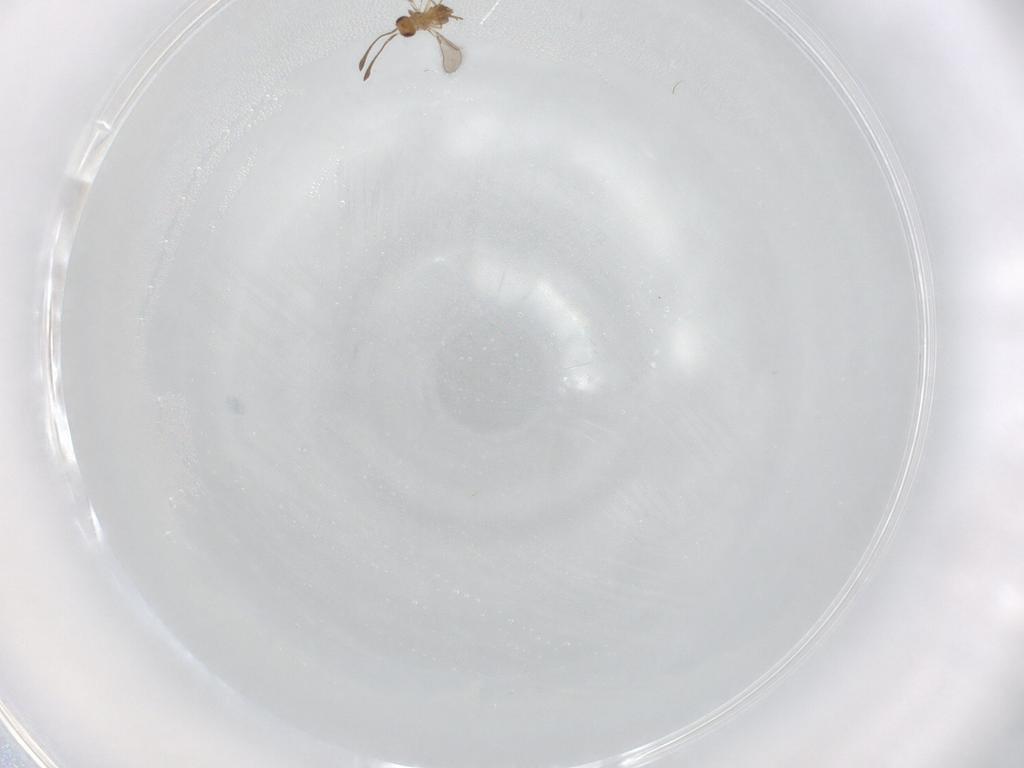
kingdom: Animalia
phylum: Arthropoda
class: Insecta
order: Hymenoptera
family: Mymaridae
